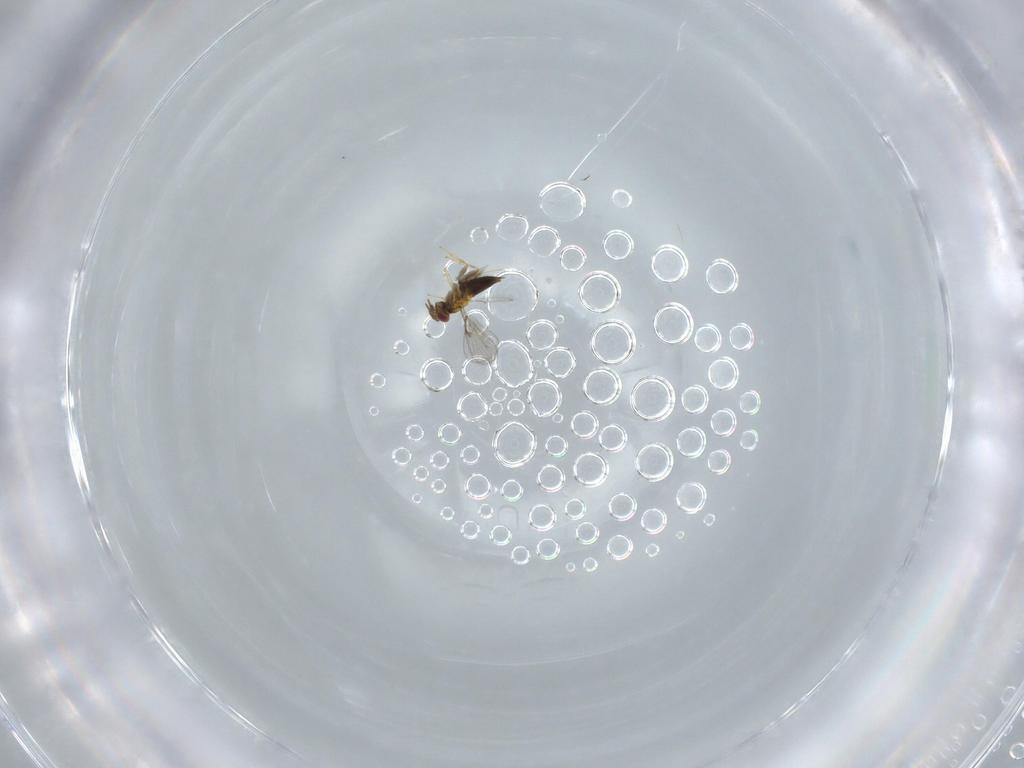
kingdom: Animalia
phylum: Arthropoda
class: Insecta
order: Hymenoptera
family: Trichogrammatidae
